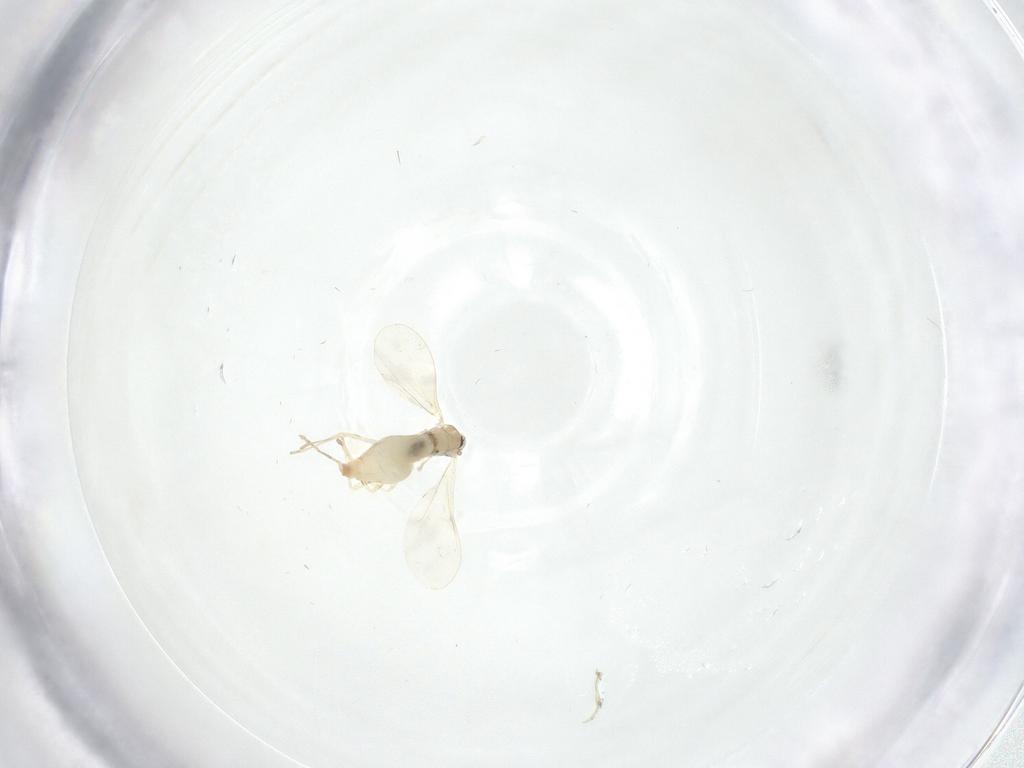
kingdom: Animalia
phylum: Arthropoda
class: Insecta
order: Diptera
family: Cecidomyiidae
